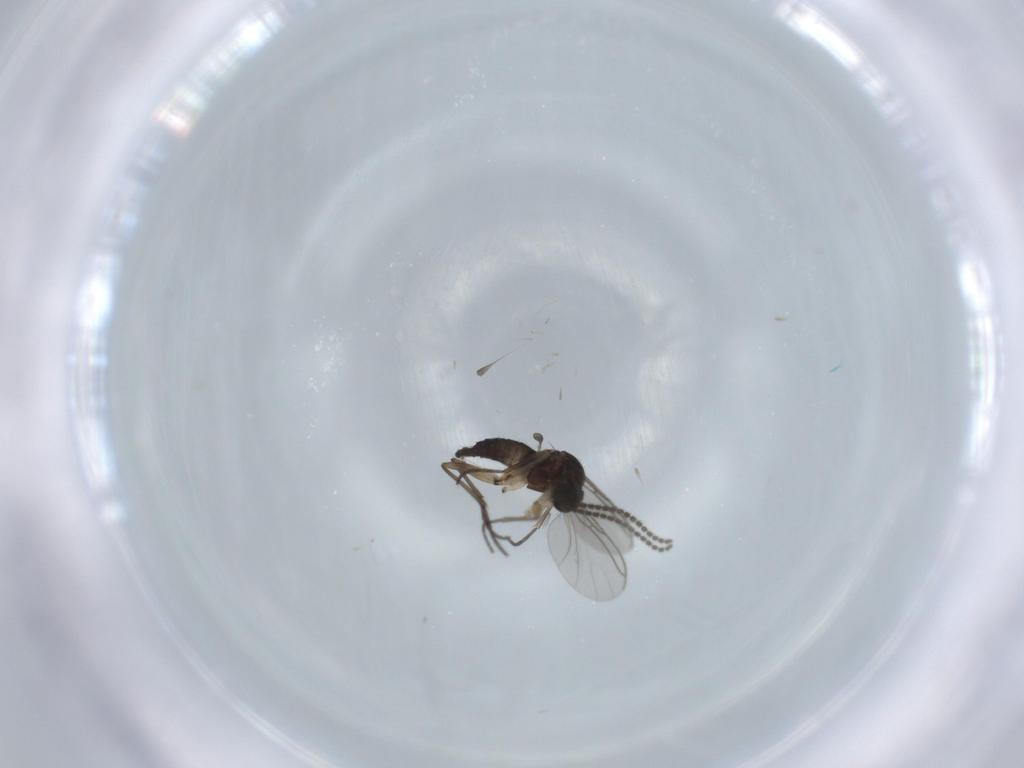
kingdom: Animalia
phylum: Arthropoda
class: Insecta
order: Diptera
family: Sciaridae
